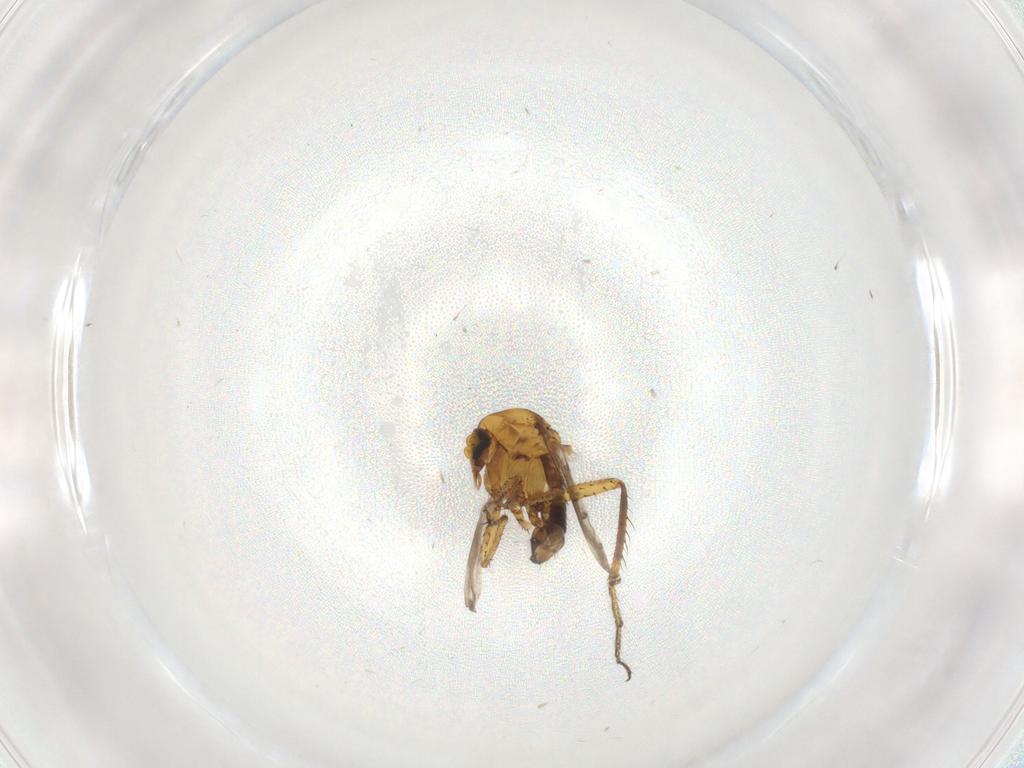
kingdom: Animalia
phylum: Arthropoda
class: Insecta
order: Diptera
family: Ceratopogonidae
